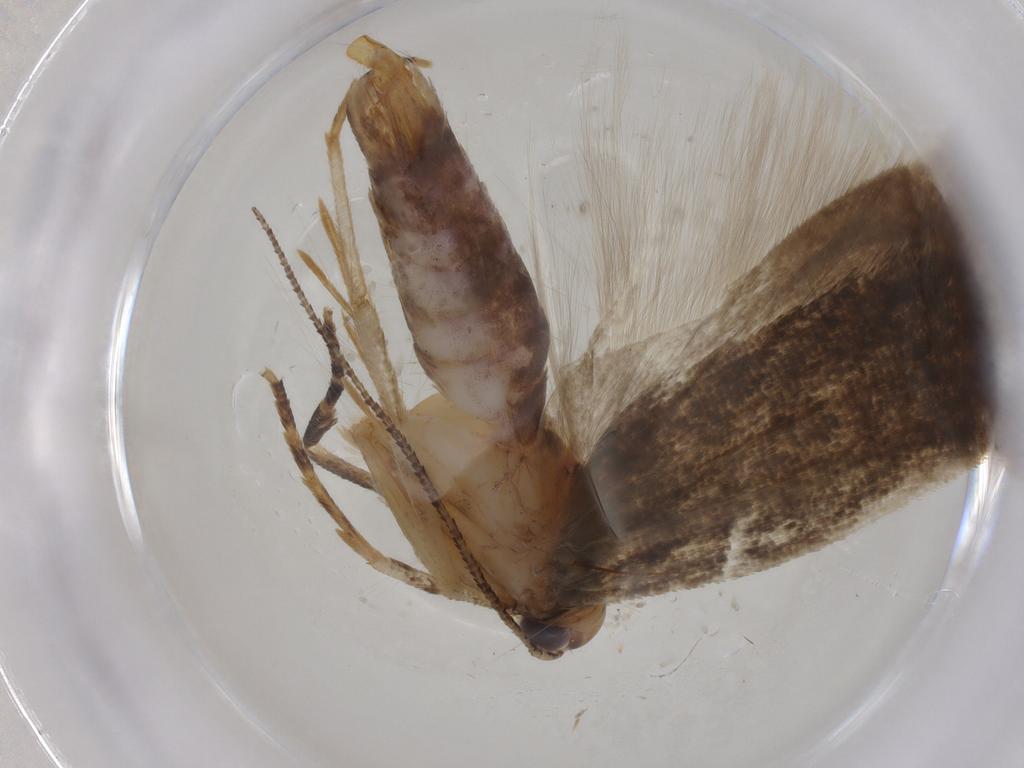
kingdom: Animalia
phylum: Arthropoda
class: Insecta
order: Lepidoptera
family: Gelechiidae
